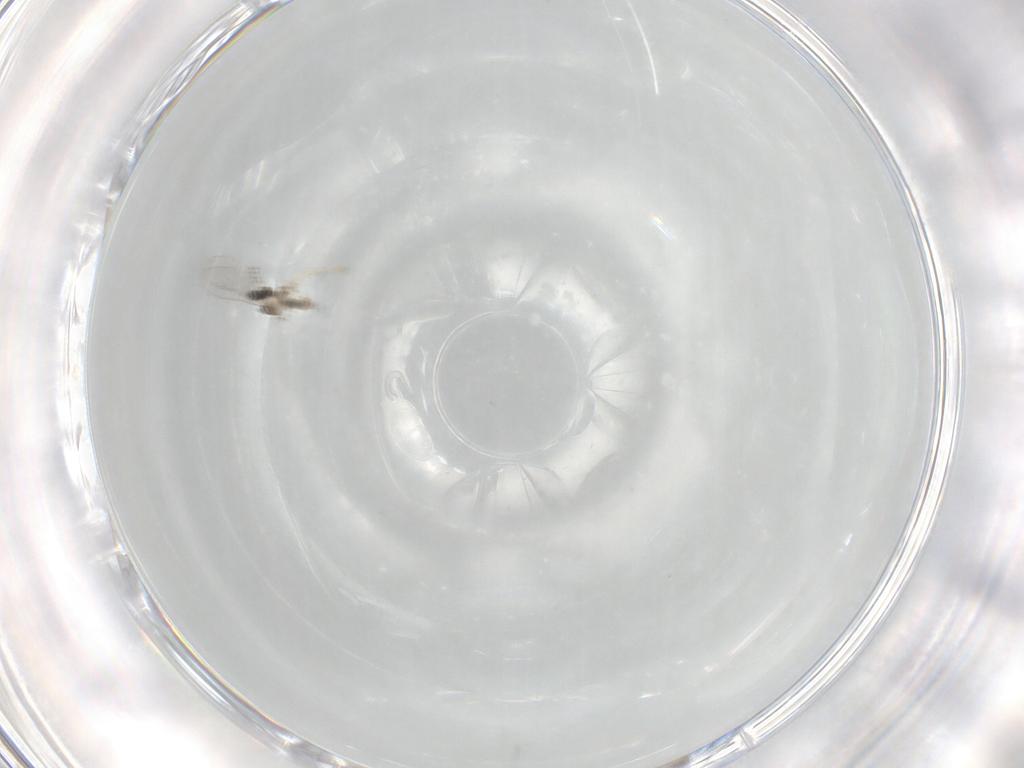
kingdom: Animalia
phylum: Arthropoda
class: Insecta
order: Diptera
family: Cecidomyiidae
